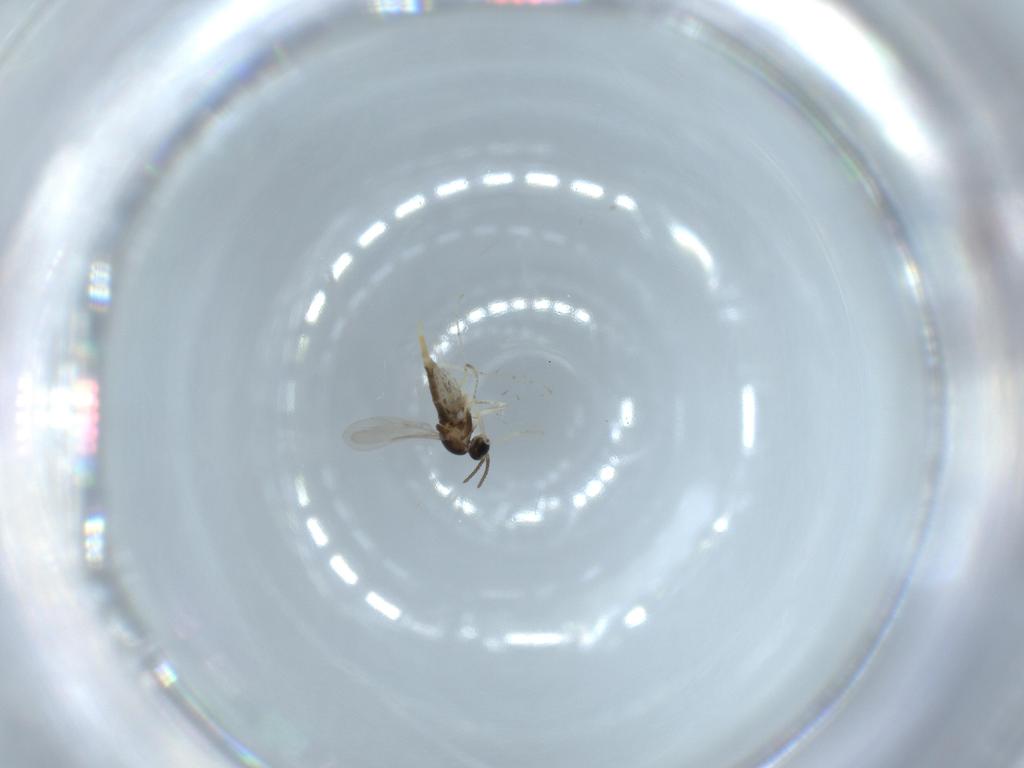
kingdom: Animalia
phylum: Arthropoda
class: Insecta
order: Diptera
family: Cecidomyiidae
